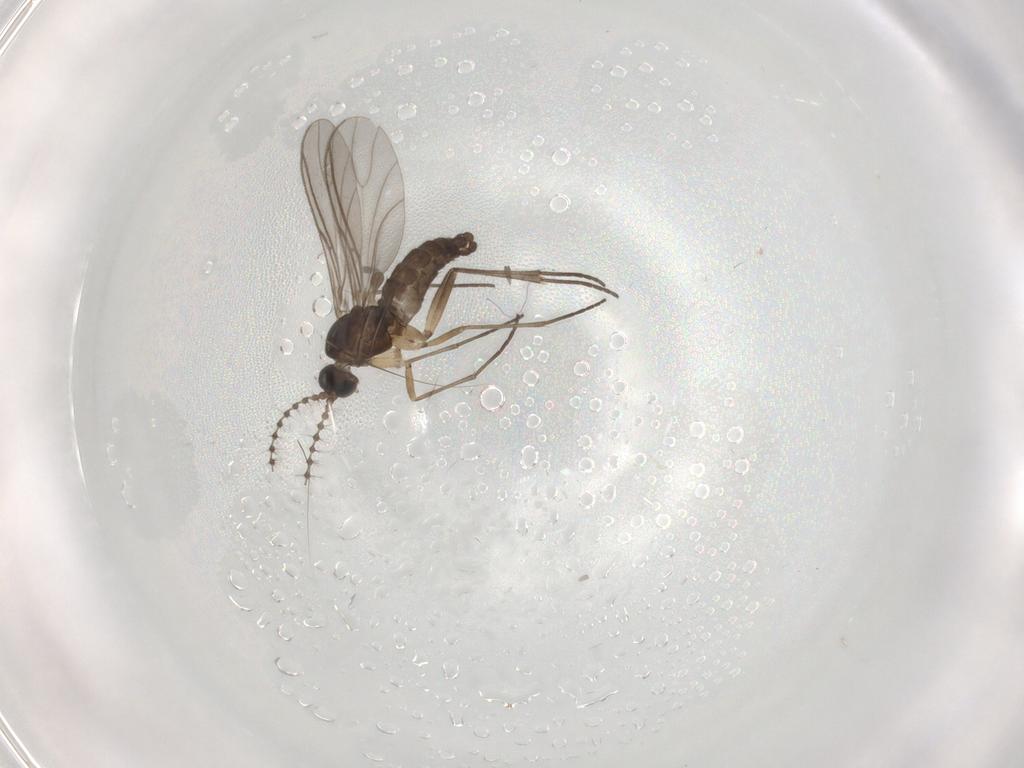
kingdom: Animalia
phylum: Arthropoda
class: Insecta
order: Diptera
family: Sciaridae
